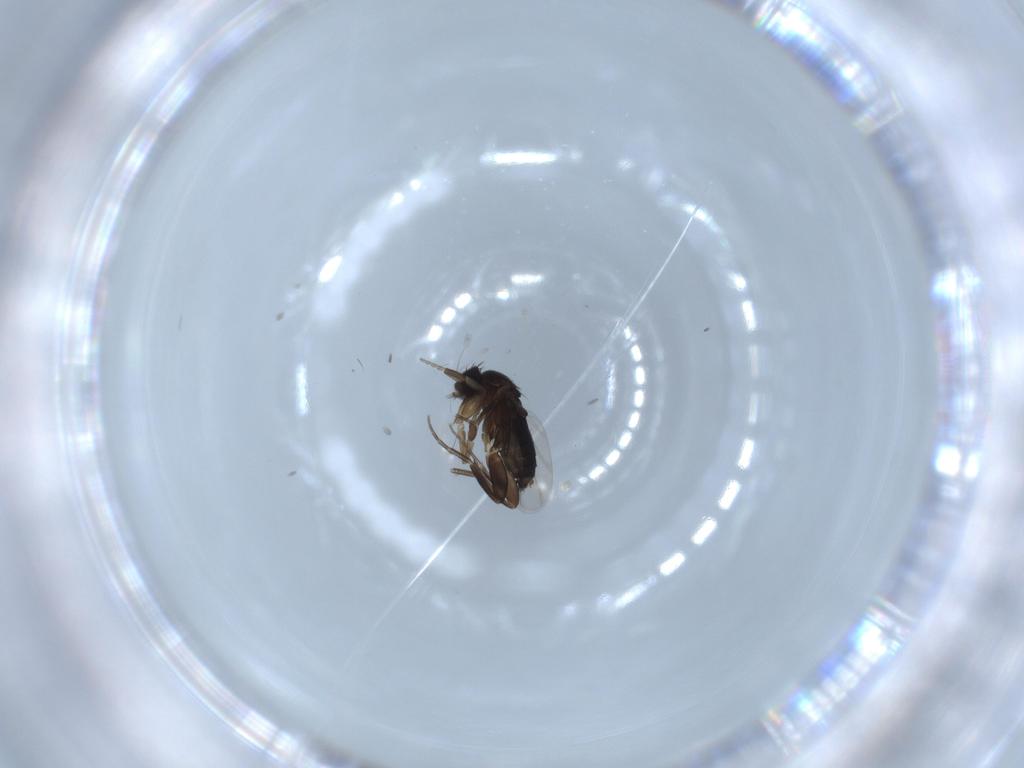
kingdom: Animalia
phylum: Arthropoda
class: Insecta
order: Diptera
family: Phoridae
